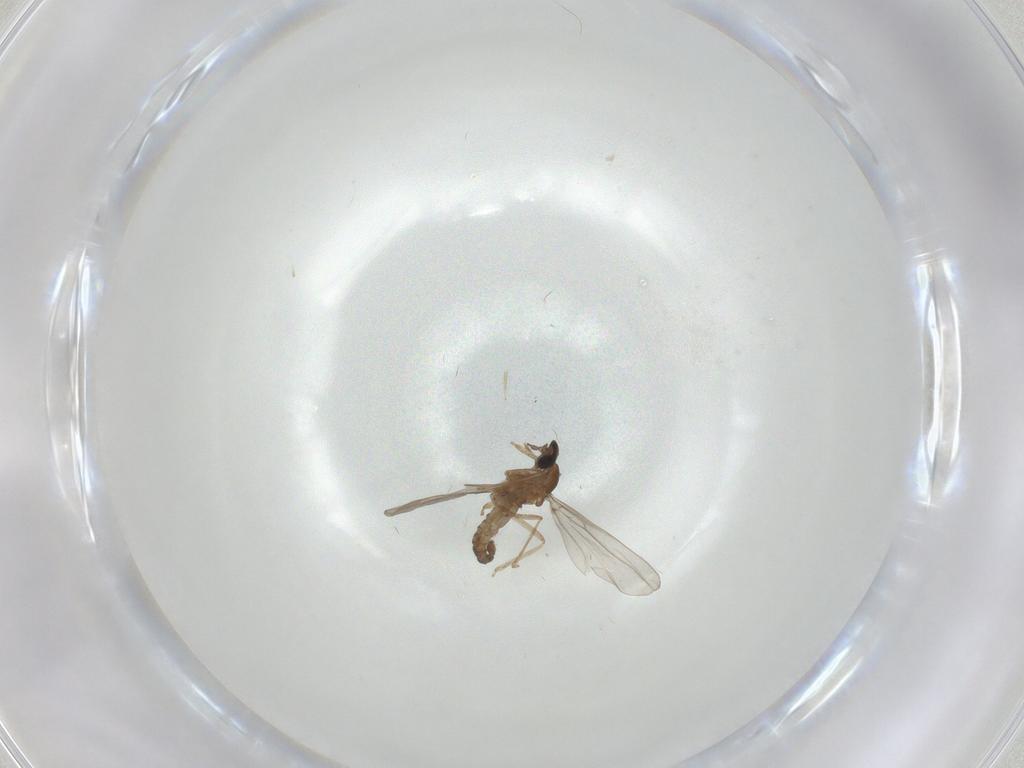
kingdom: Animalia
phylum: Arthropoda
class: Insecta
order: Diptera
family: Cecidomyiidae
